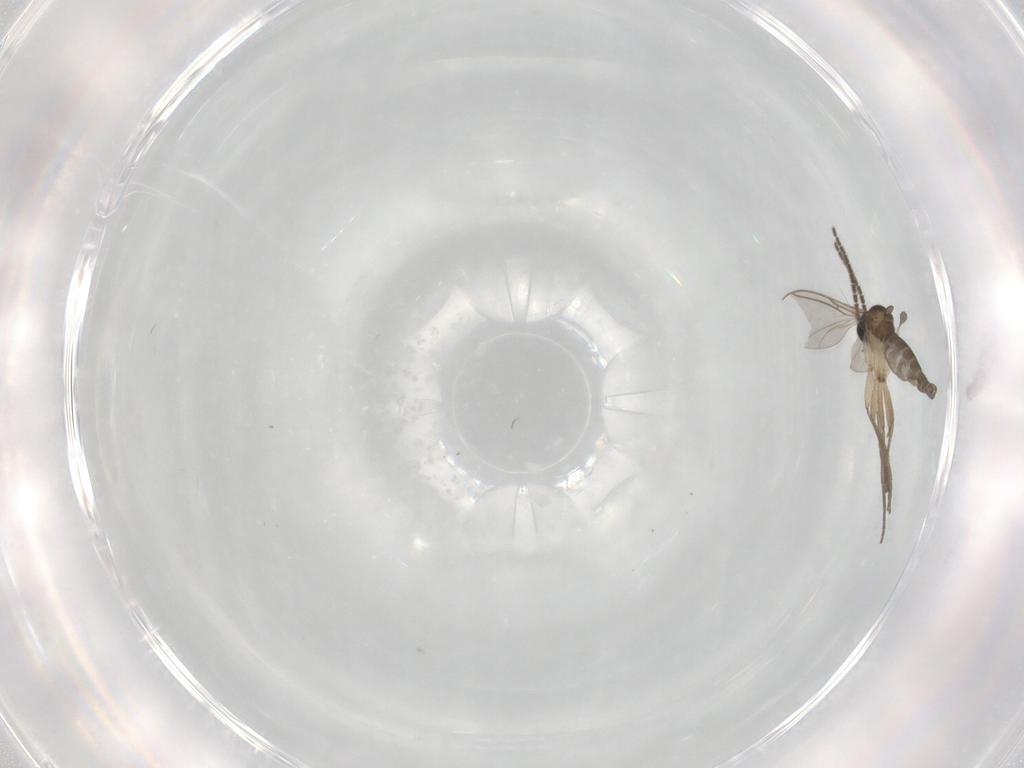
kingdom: Animalia
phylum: Arthropoda
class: Insecta
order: Diptera
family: Sciaridae
